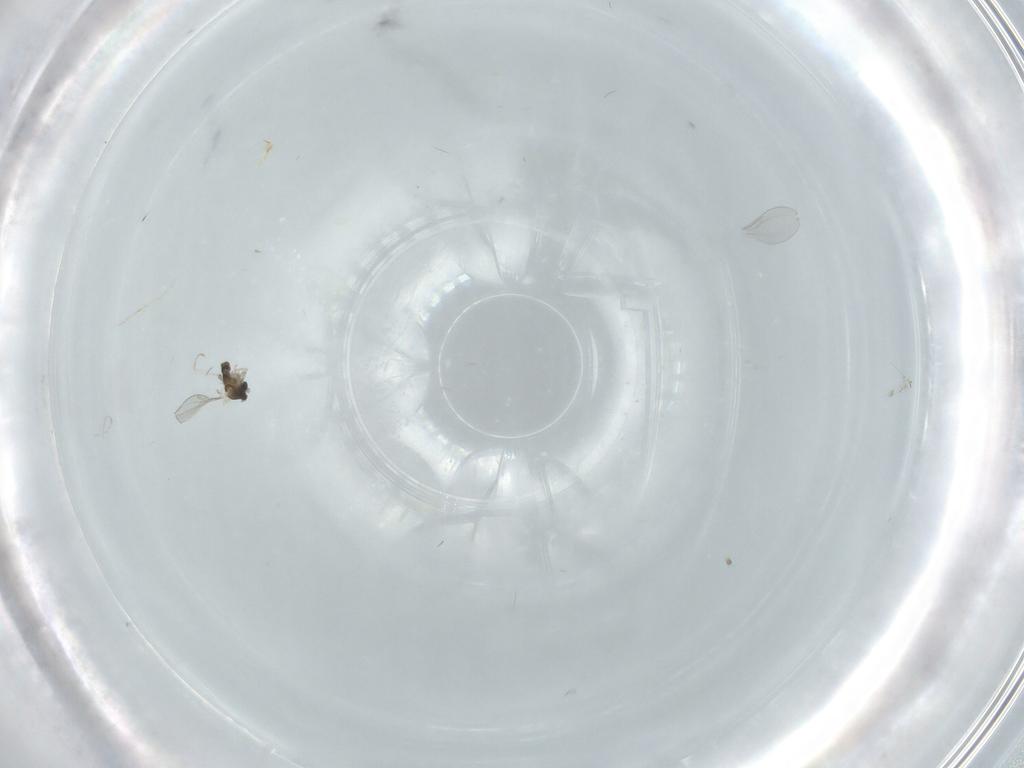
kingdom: Animalia
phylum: Arthropoda
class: Insecta
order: Diptera
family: Cecidomyiidae
